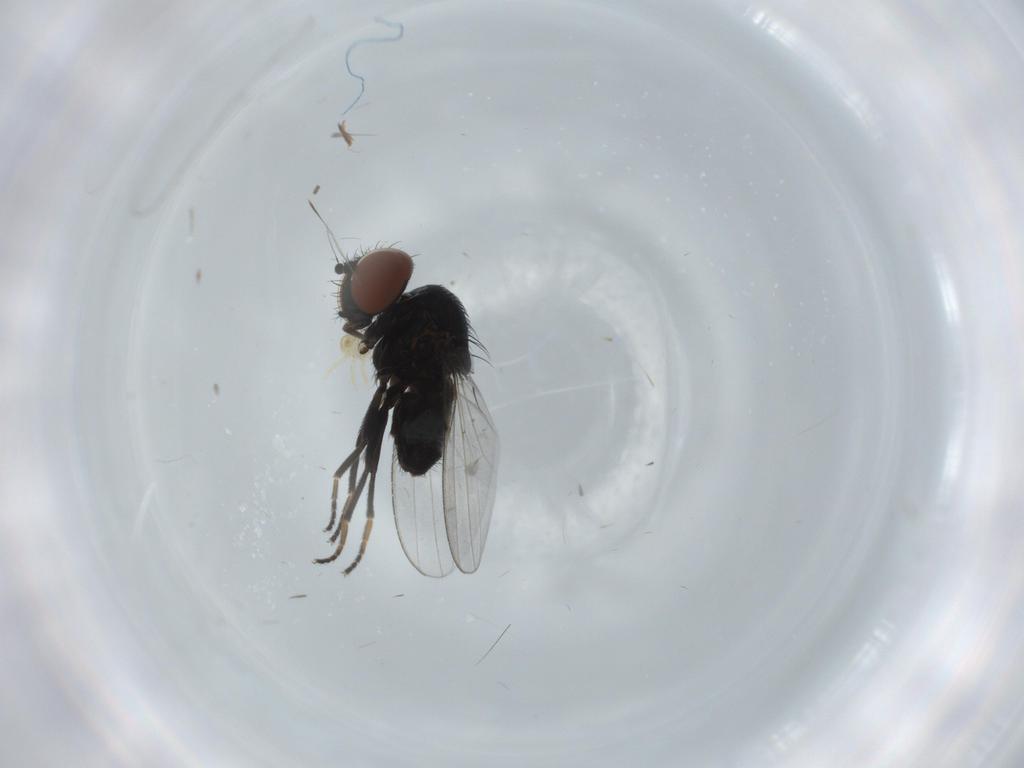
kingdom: Animalia
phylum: Arthropoda
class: Insecta
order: Diptera
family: Milichiidae
